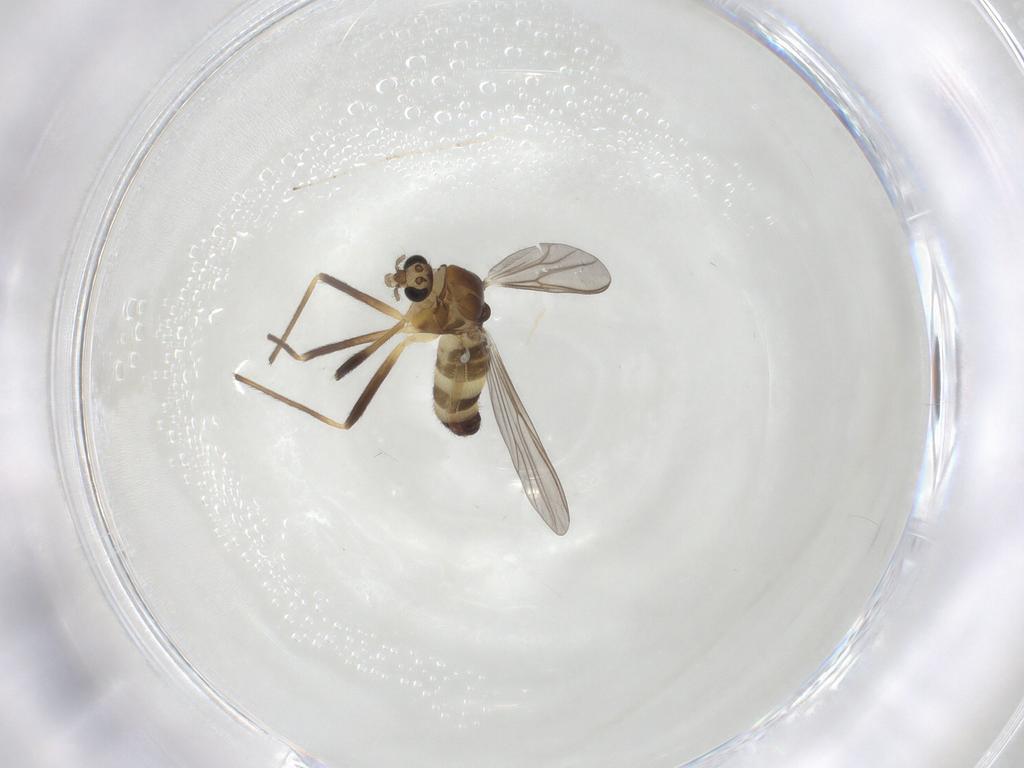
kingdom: Animalia
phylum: Arthropoda
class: Insecta
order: Diptera
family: Chironomidae
